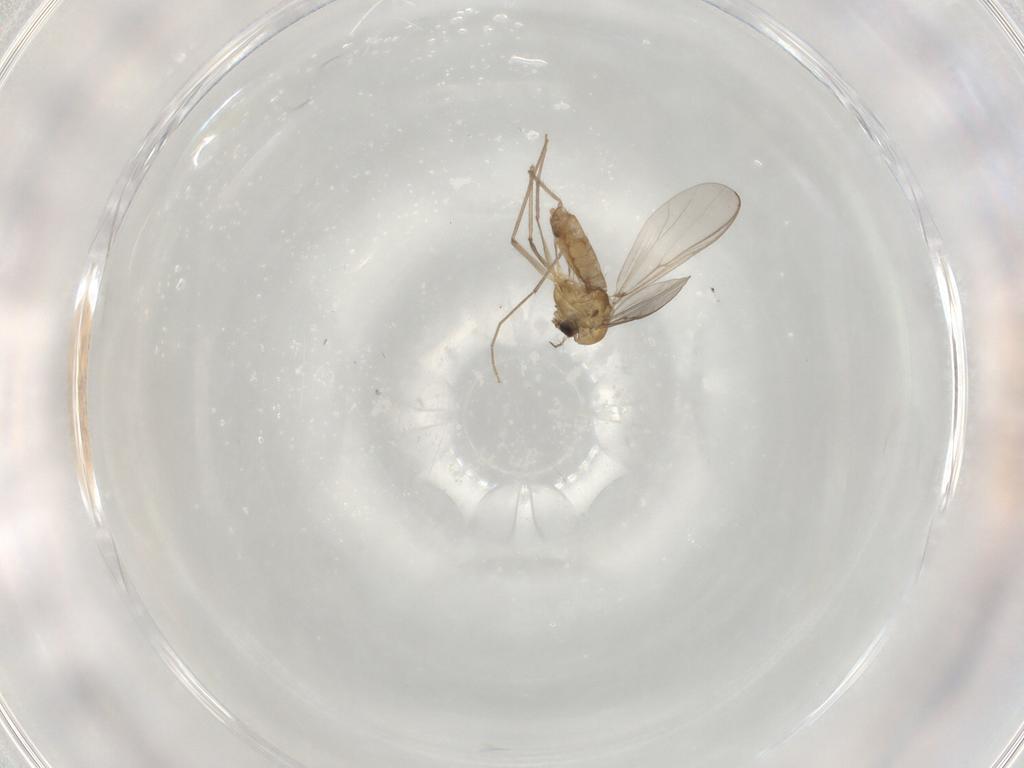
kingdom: Animalia
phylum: Arthropoda
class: Insecta
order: Diptera
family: Chironomidae
